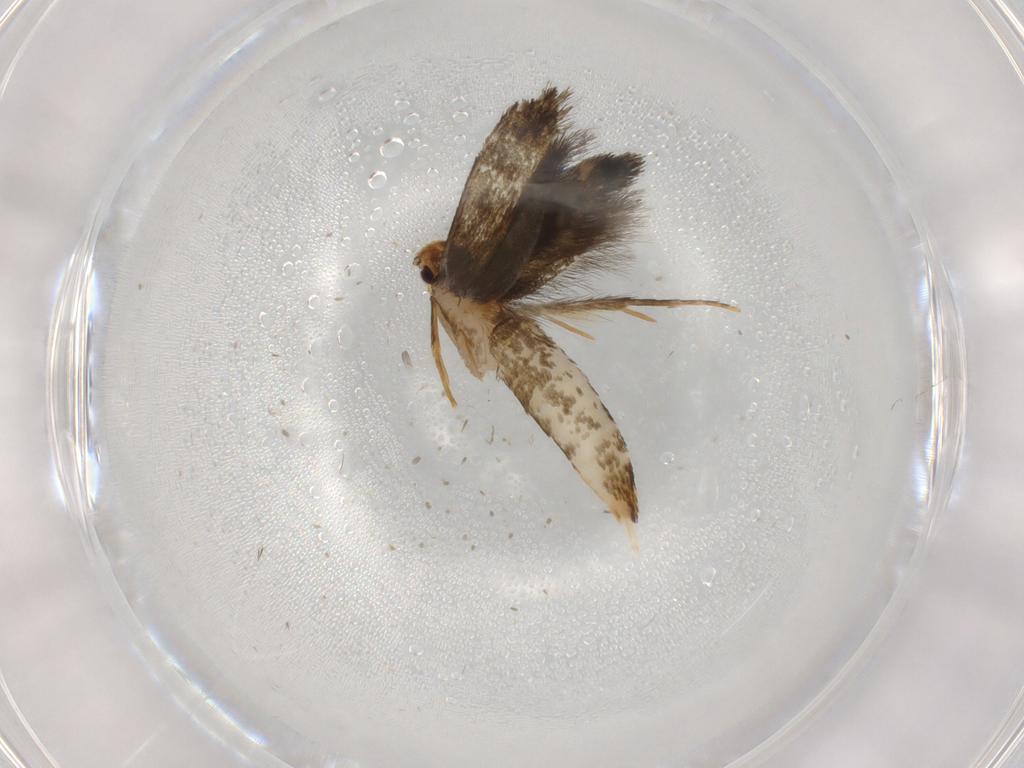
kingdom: Animalia
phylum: Arthropoda
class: Insecta
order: Lepidoptera
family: Tineidae
